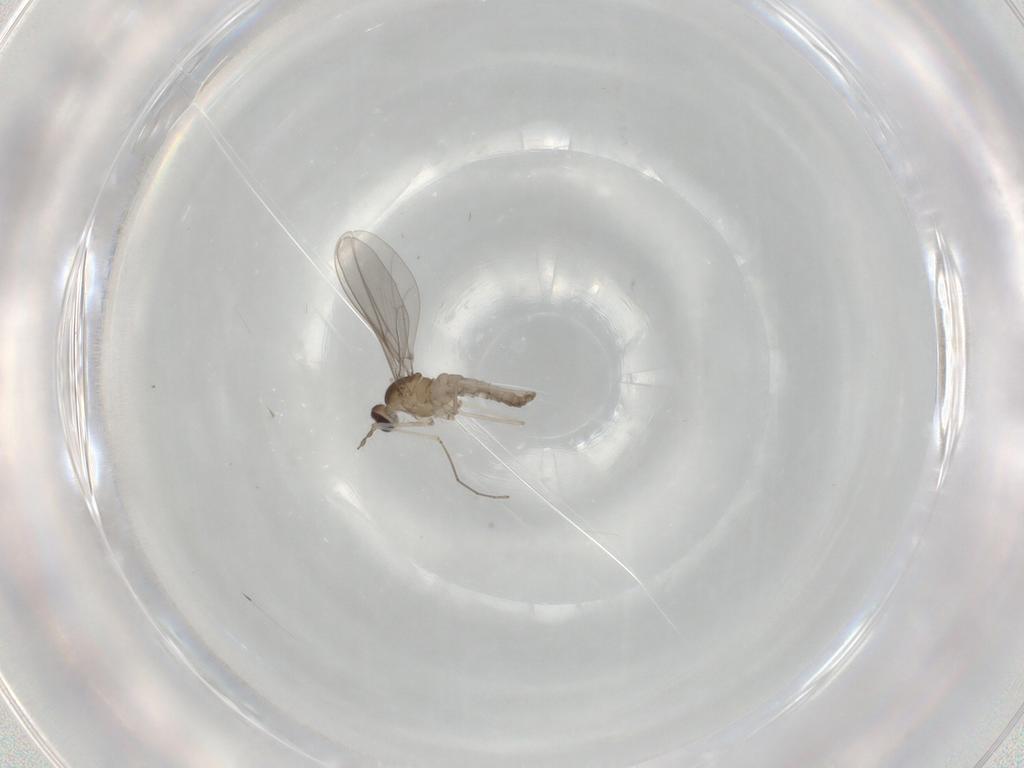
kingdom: Animalia
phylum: Arthropoda
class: Insecta
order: Diptera
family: Cecidomyiidae
